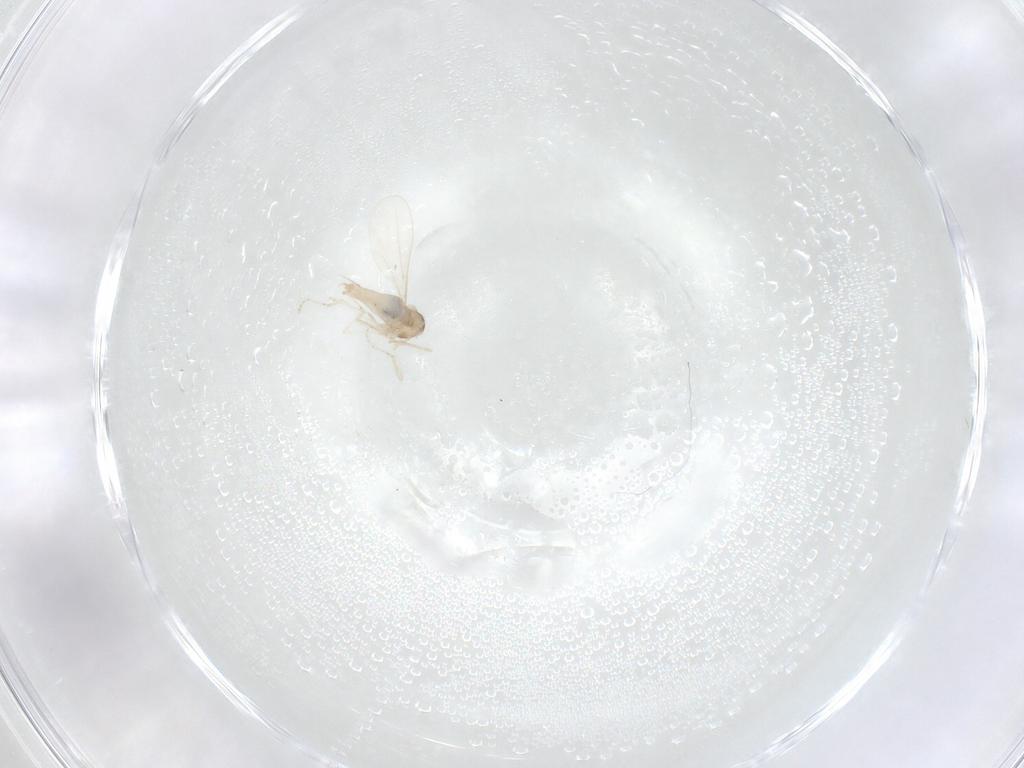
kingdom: Animalia
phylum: Arthropoda
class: Insecta
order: Diptera
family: Cecidomyiidae
